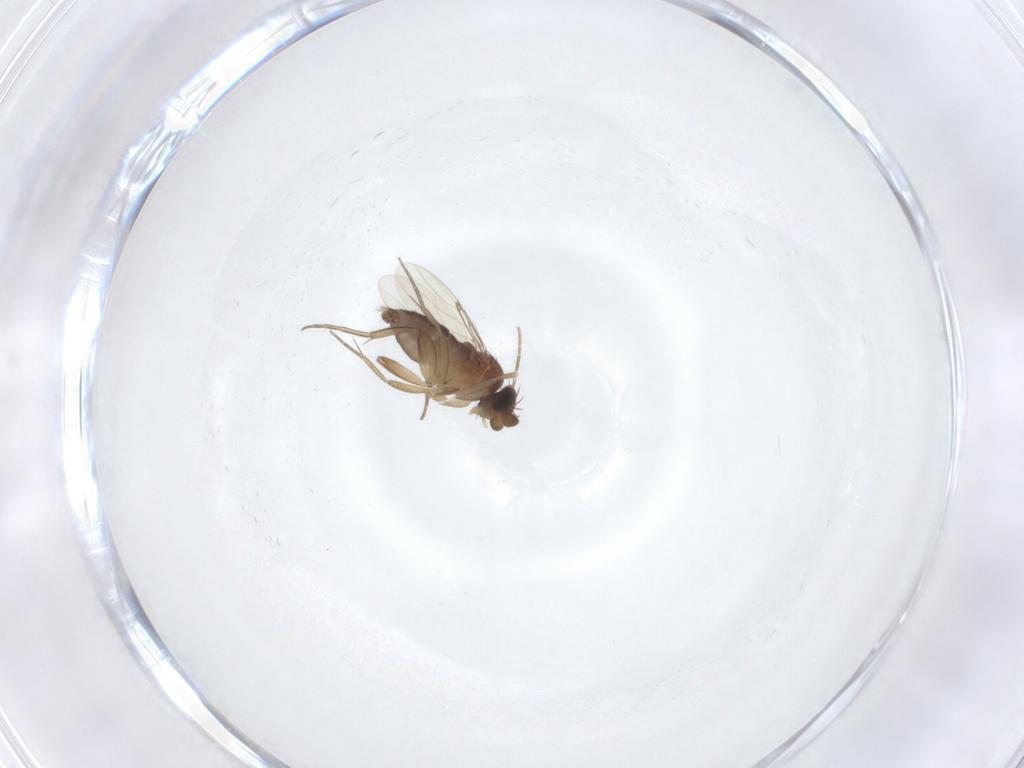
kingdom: Animalia
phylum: Arthropoda
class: Insecta
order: Diptera
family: Phoridae
